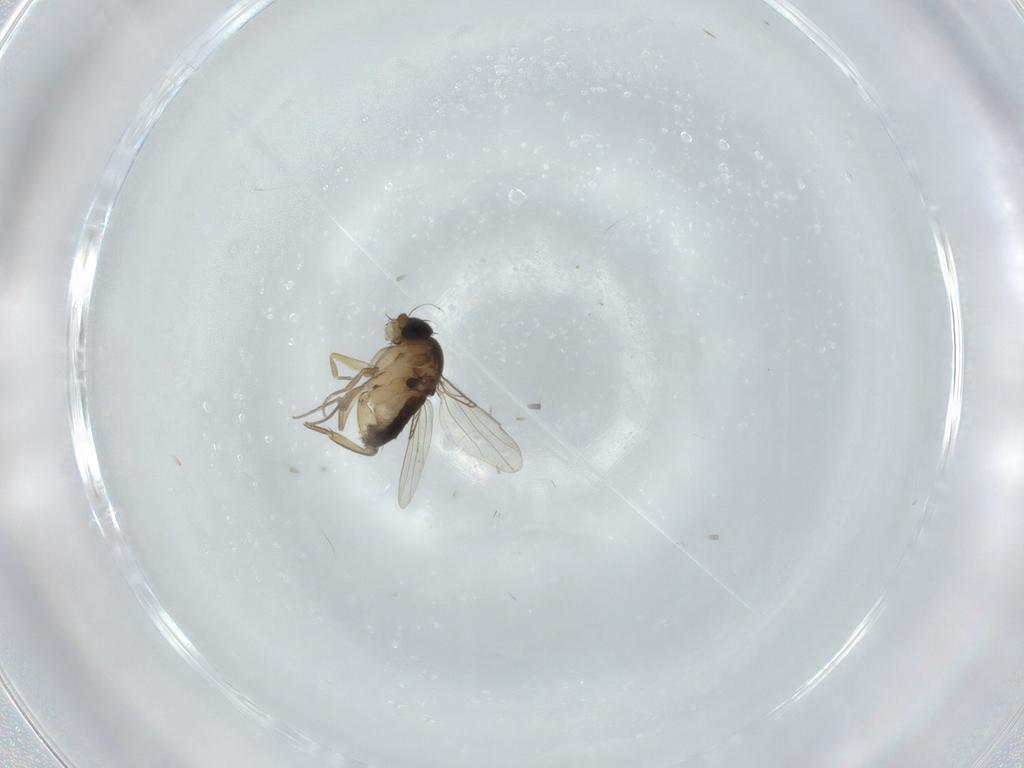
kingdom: Animalia
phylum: Arthropoda
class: Insecta
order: Diptera
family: Phoridae
